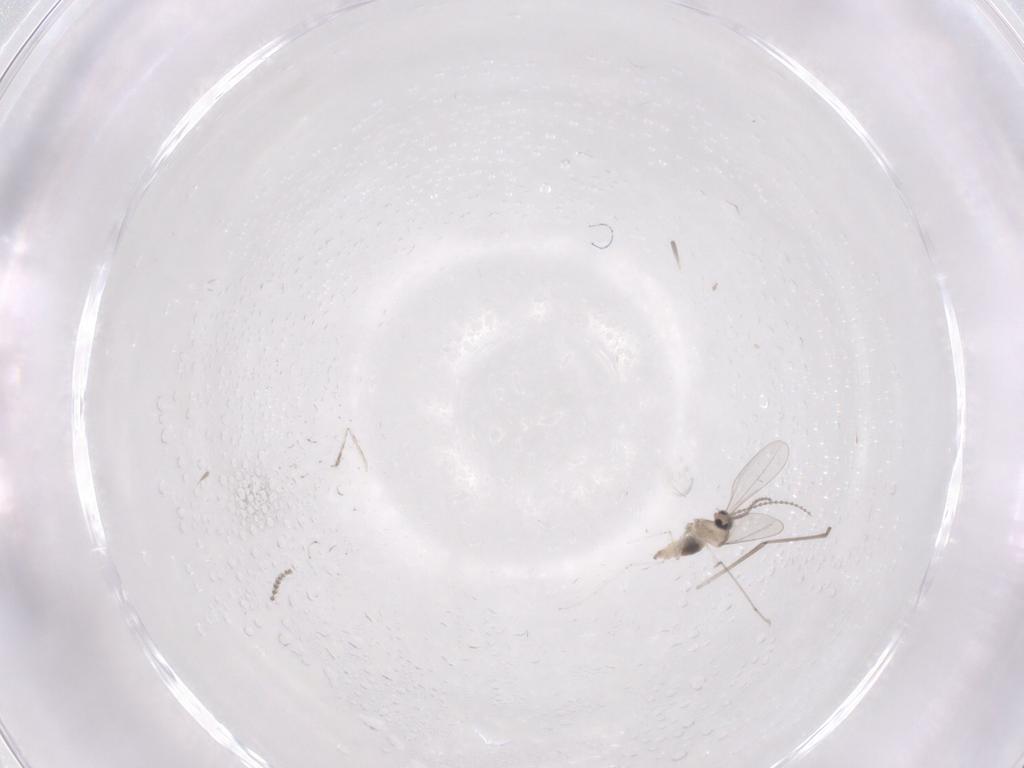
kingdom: Animalia
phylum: Arthropoda
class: Insecta
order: Diptera
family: Cecidomyiidae
